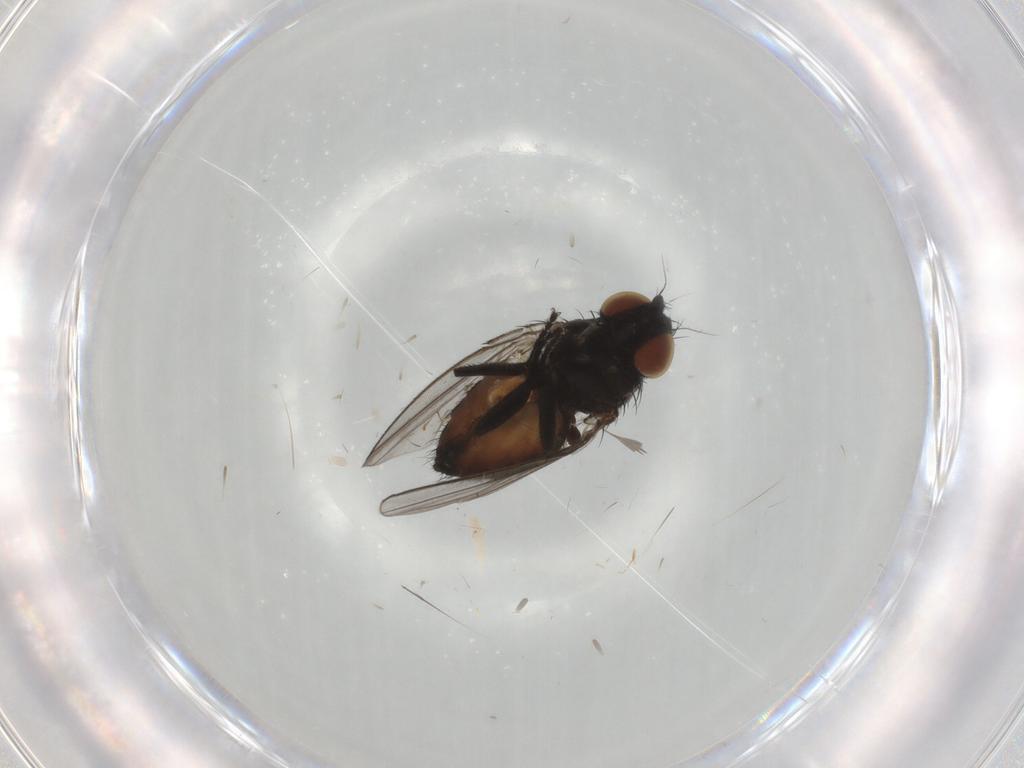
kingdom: Animalia
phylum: Arthropoda
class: Insecta
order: Diptera
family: Milichiidae
